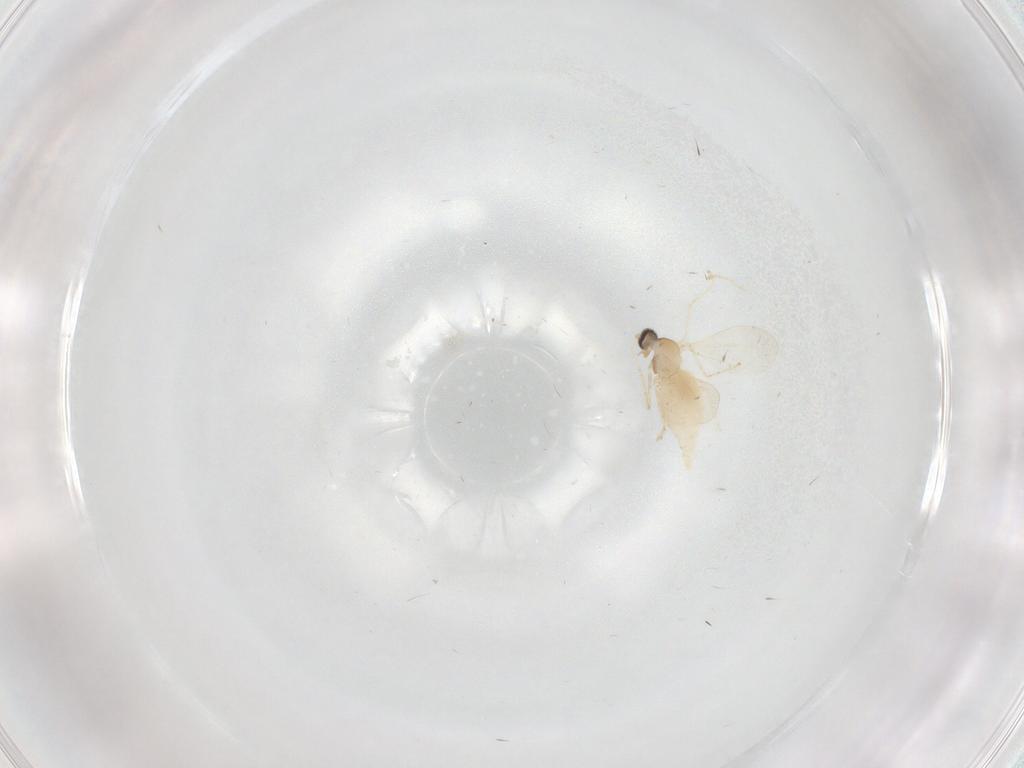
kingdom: Animalia
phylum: Arthropoda
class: Insecta
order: Diptera
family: Cecidomyiidae
